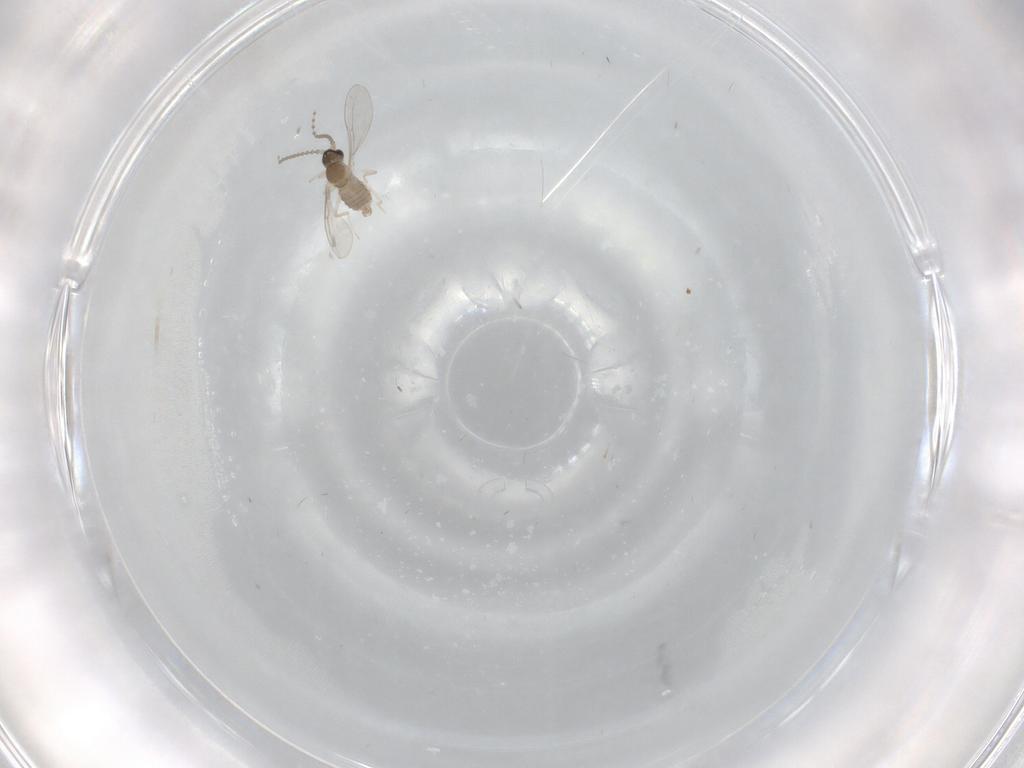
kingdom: Animalia
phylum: Arthropoda
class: Insecta
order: Diptera
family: Cecidomyiidae
